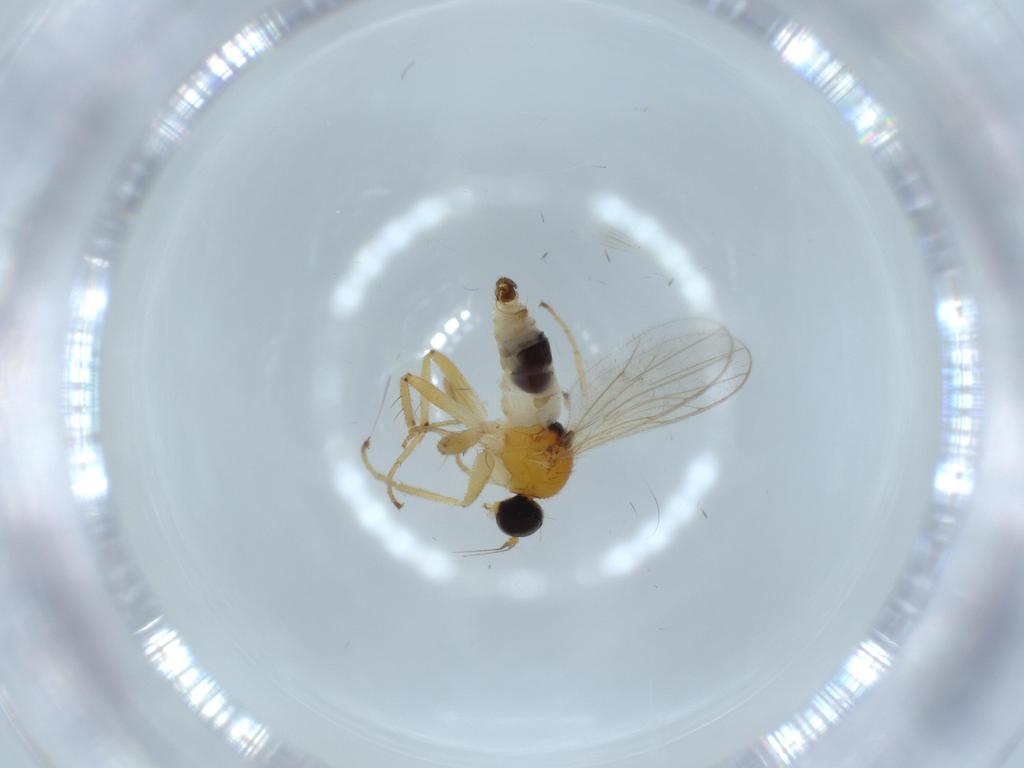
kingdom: Animalia
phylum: Arthropoda
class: Insecta
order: Diptera
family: Hybotidae
